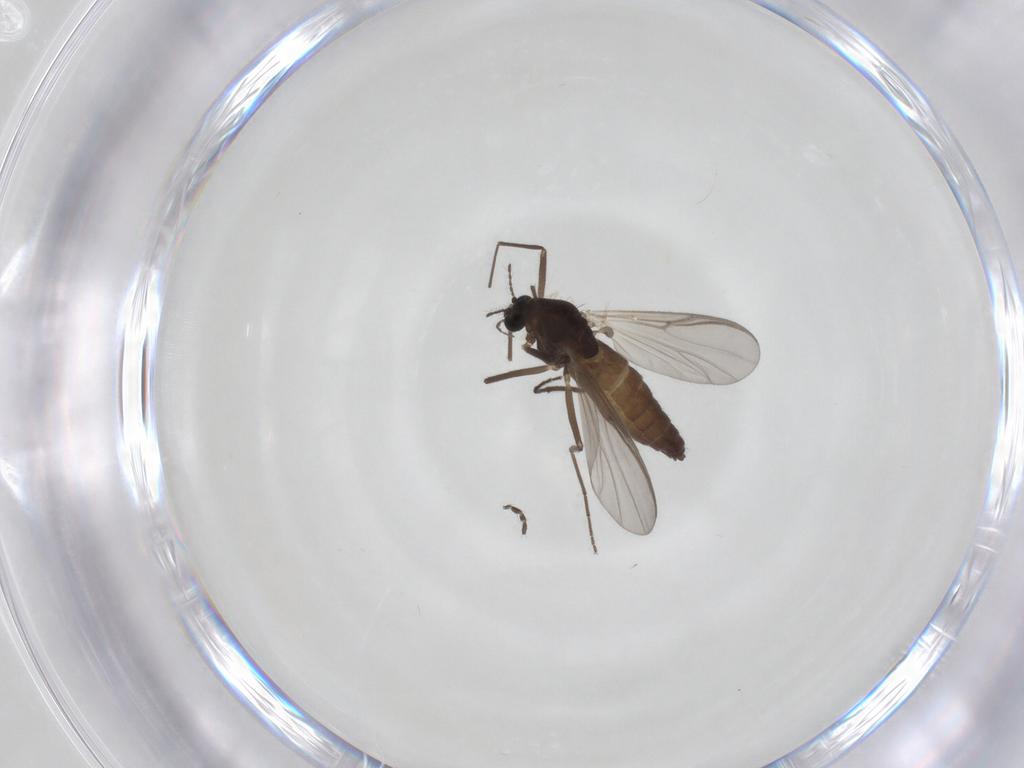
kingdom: Animalia
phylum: Arthropoda
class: Insecta
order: Diptera
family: Chironomidae
